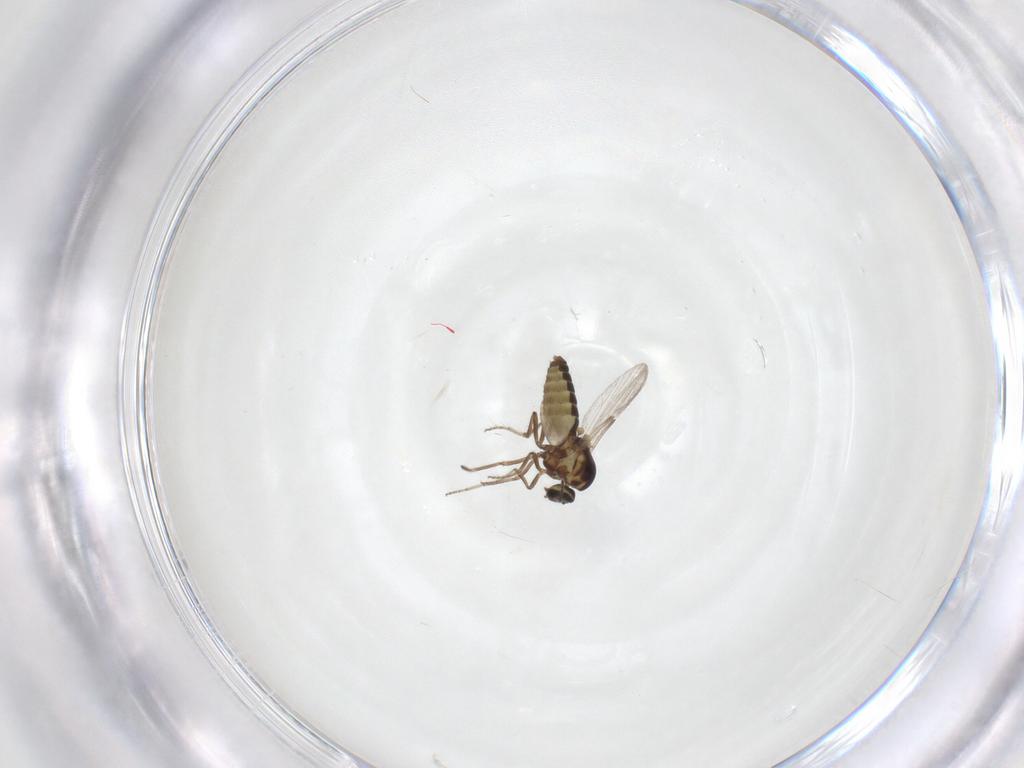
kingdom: Animalia
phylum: Arthropoda
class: Insecta
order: Diptera
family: Ceratopogonidae
